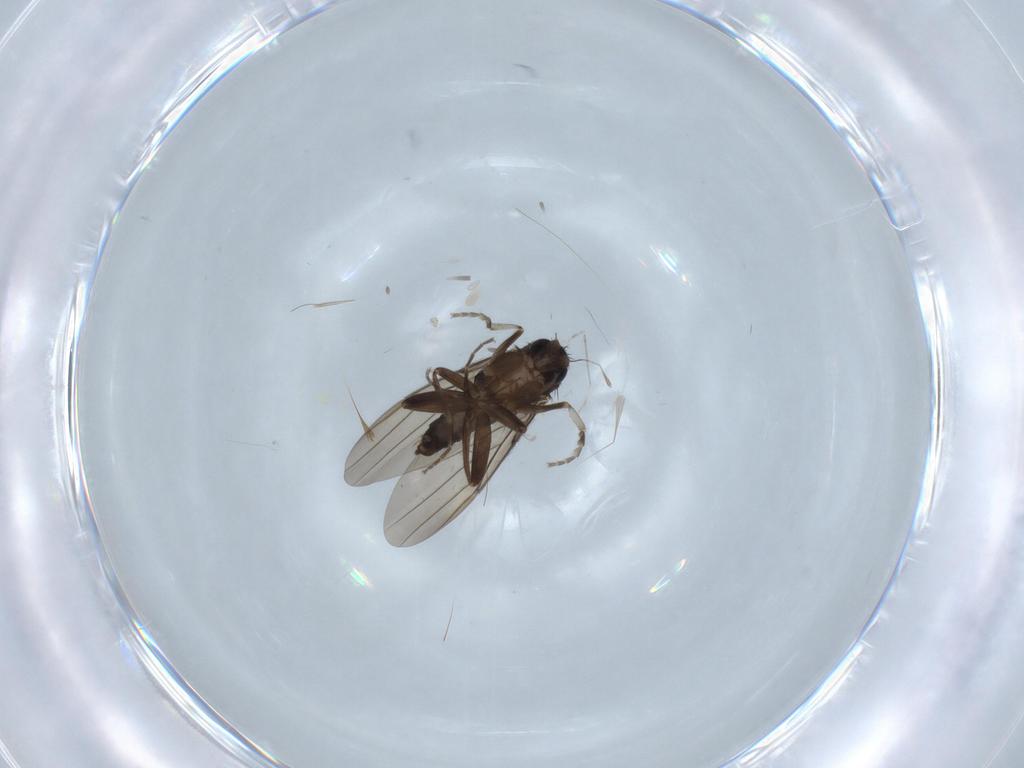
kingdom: Animalia
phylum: Arthropoda
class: Insecta
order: Diptera
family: Phoridae
